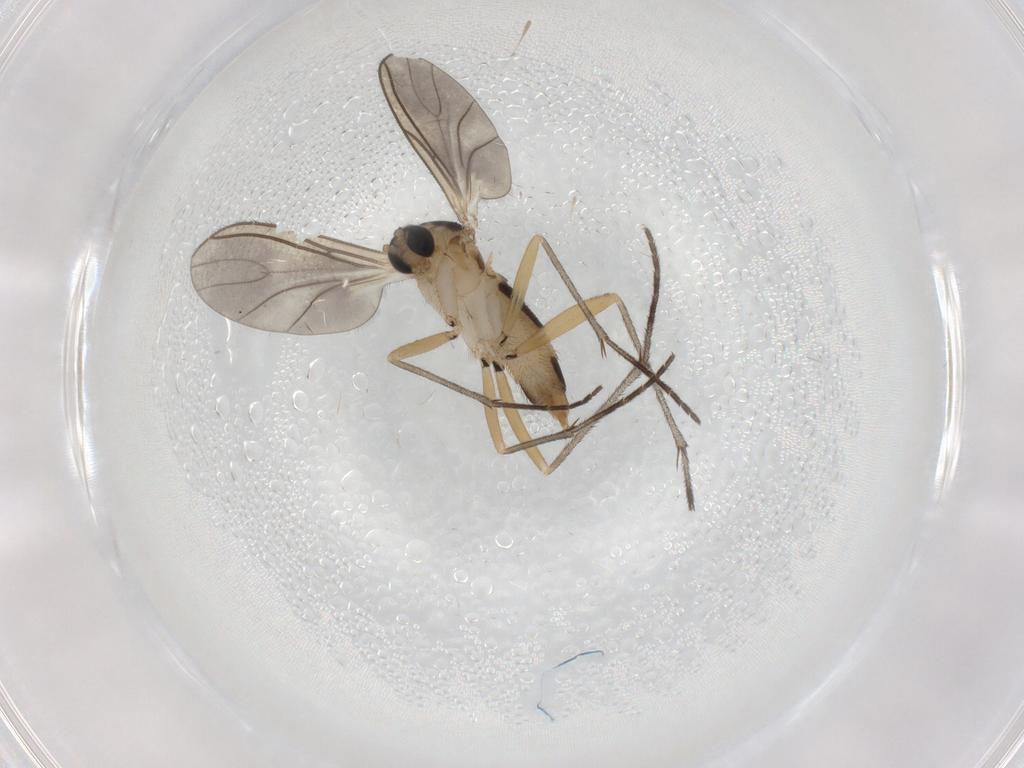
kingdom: Animalia
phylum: Arthropoda
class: Insecta
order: Diptera
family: Sciaridae
